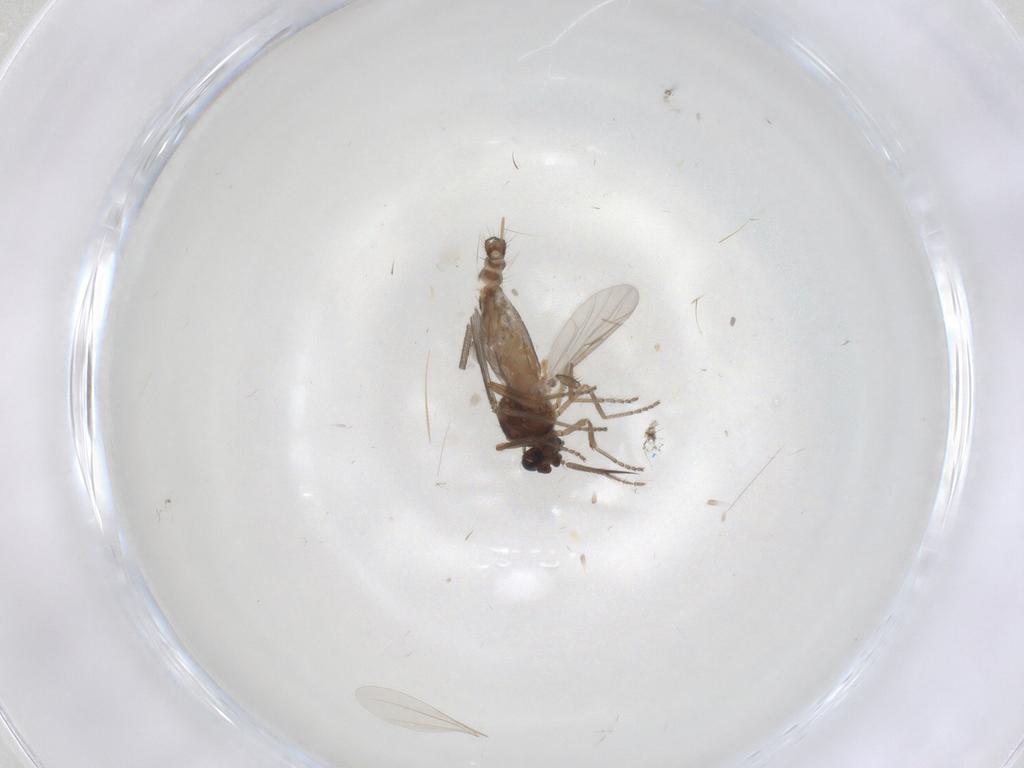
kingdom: Animalia
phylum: Arthropoda
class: Insecta
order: Diptera
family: Sciaridae
